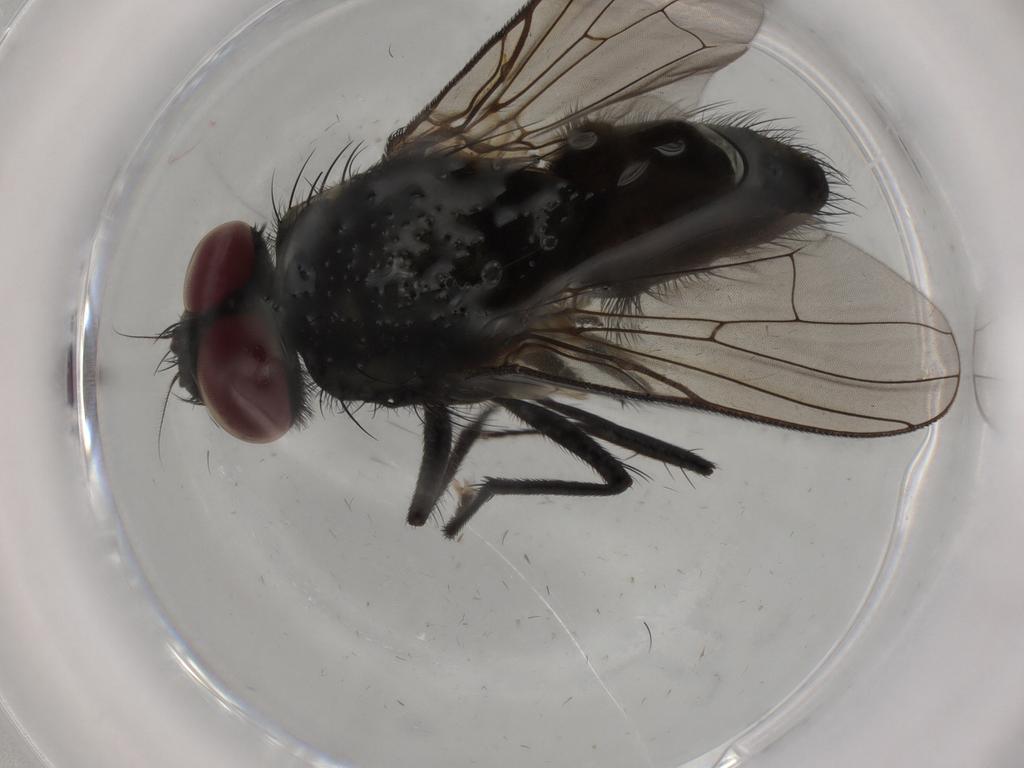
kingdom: Animalia
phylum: Arthropoda
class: Insecta
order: Diptera
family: Muscidae
